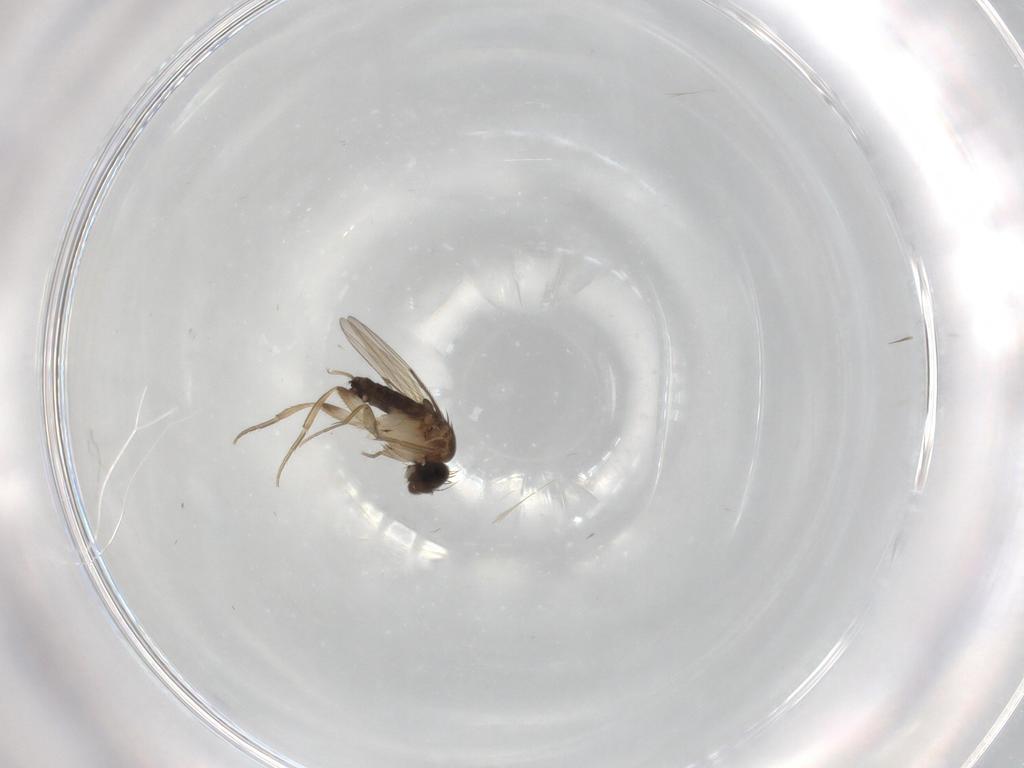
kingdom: Animalia
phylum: Arthropoda
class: Insecta
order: Diptera
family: Phoridae
